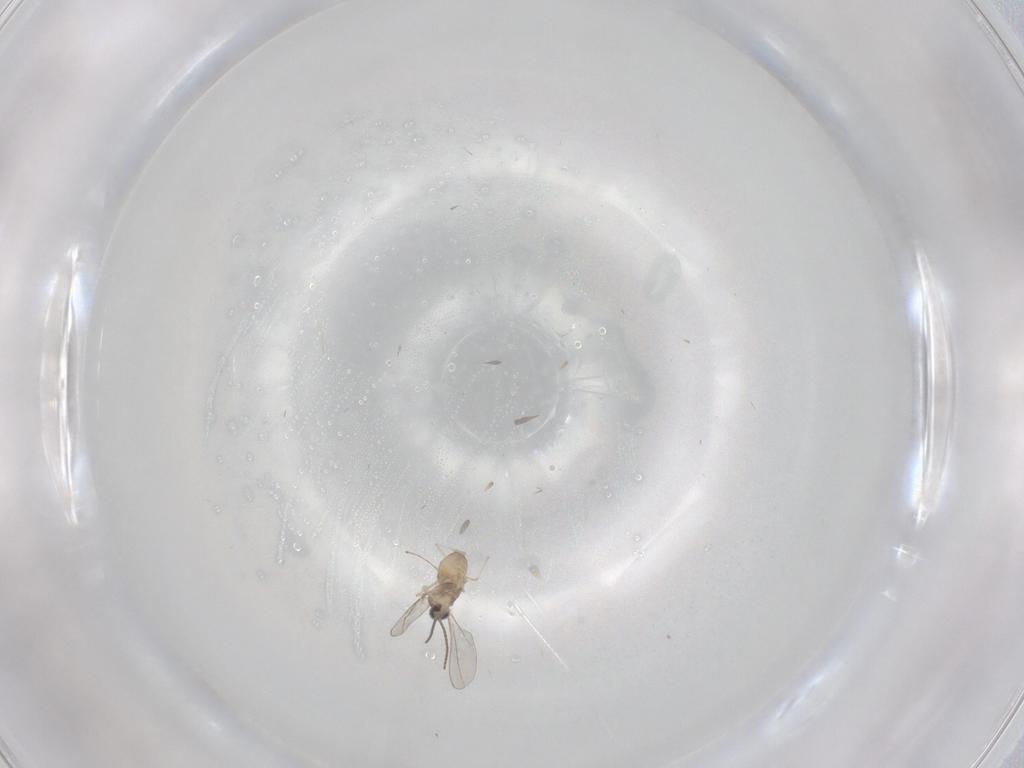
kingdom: Animalia
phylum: Arthropoda
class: Insecta
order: Diptera
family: Cecidomyiidae
